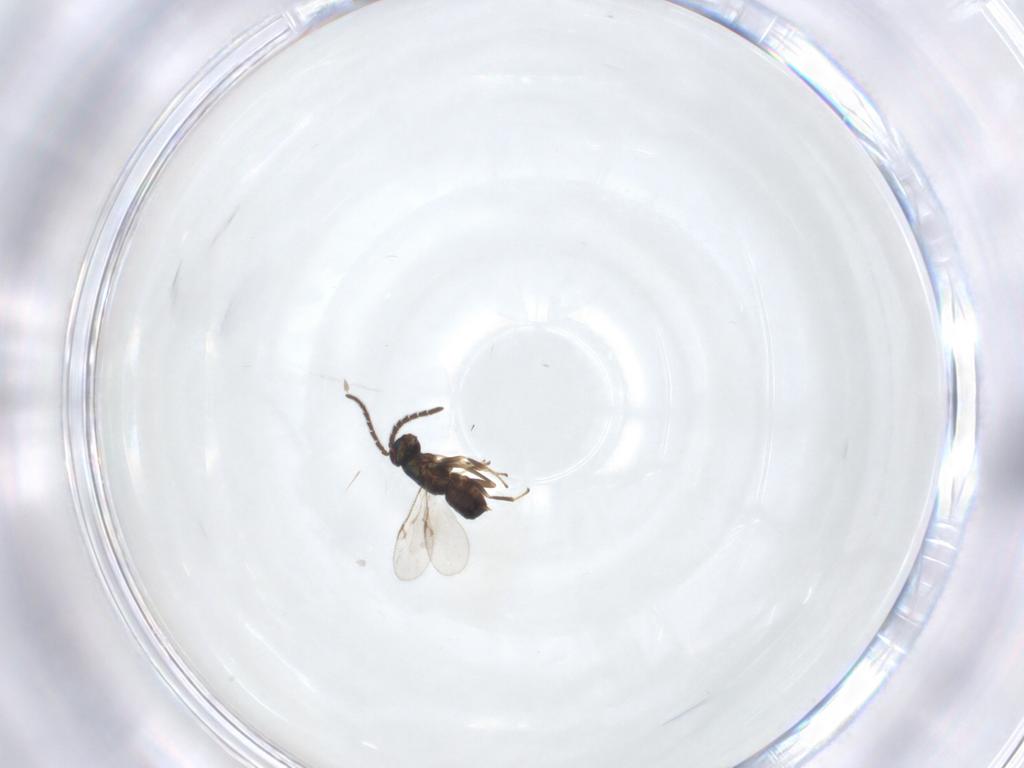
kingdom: Animalia
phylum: Arthropoda
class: Insecta
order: Hymenoptera
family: Encyrtidae
